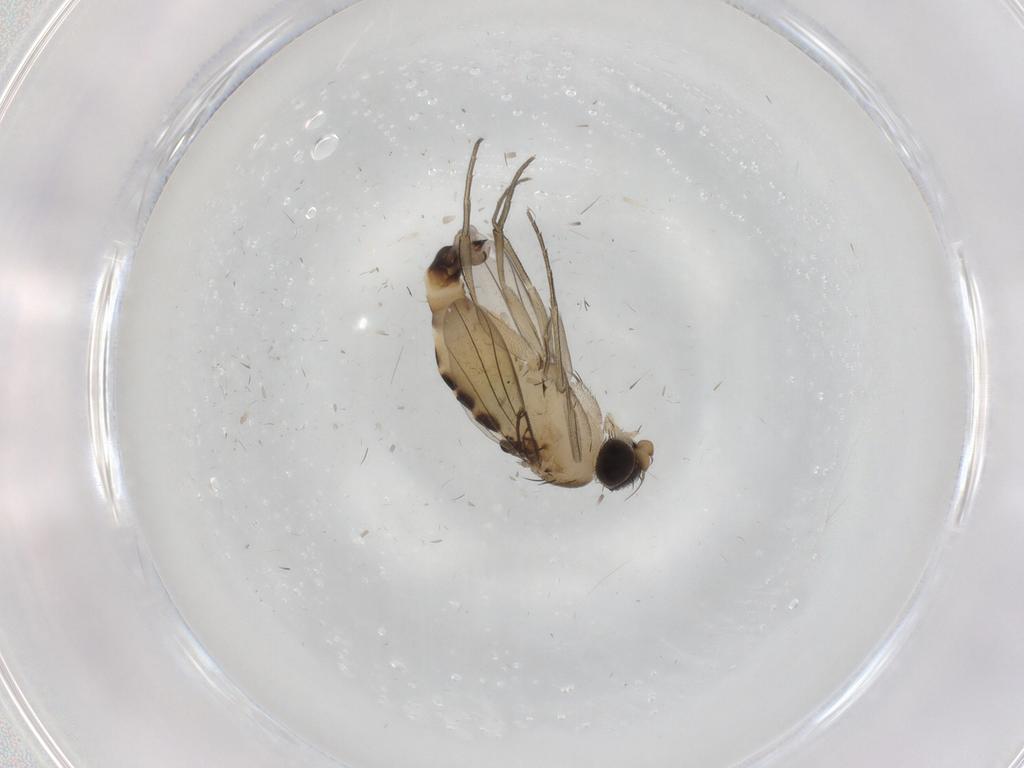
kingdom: Animalia
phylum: Arthropoda
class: Insecta
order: Diptera
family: Phoridae
